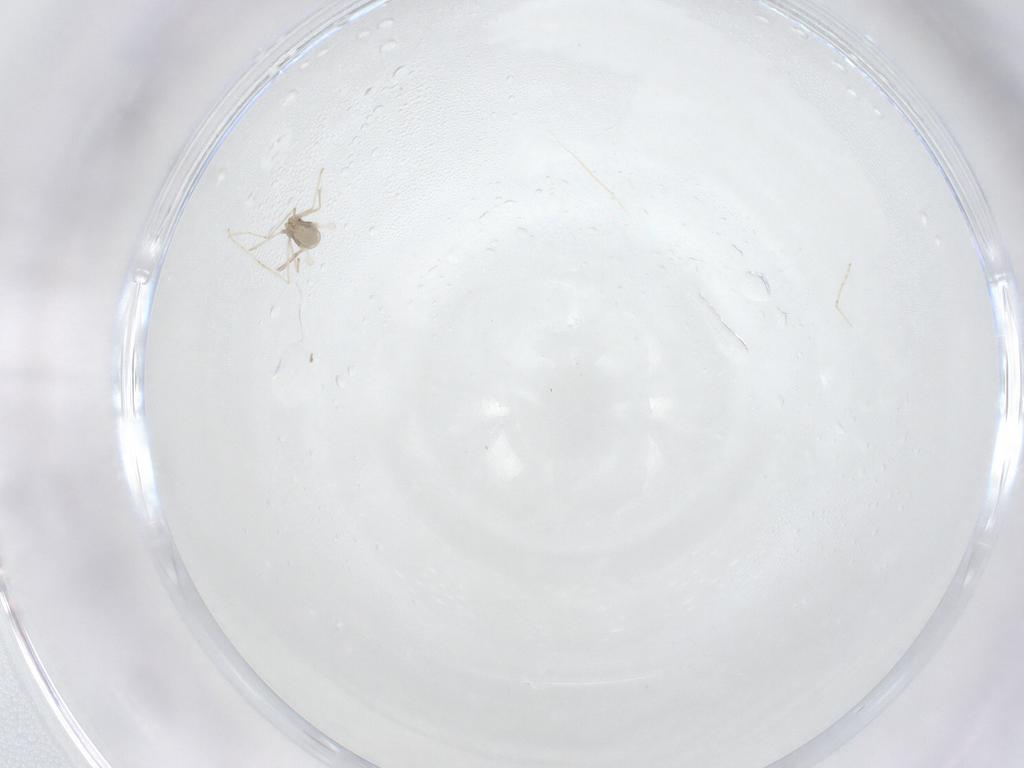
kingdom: Animalia
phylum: Arthropoda
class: Insecta
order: Diptera
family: Cecidomyiidae
